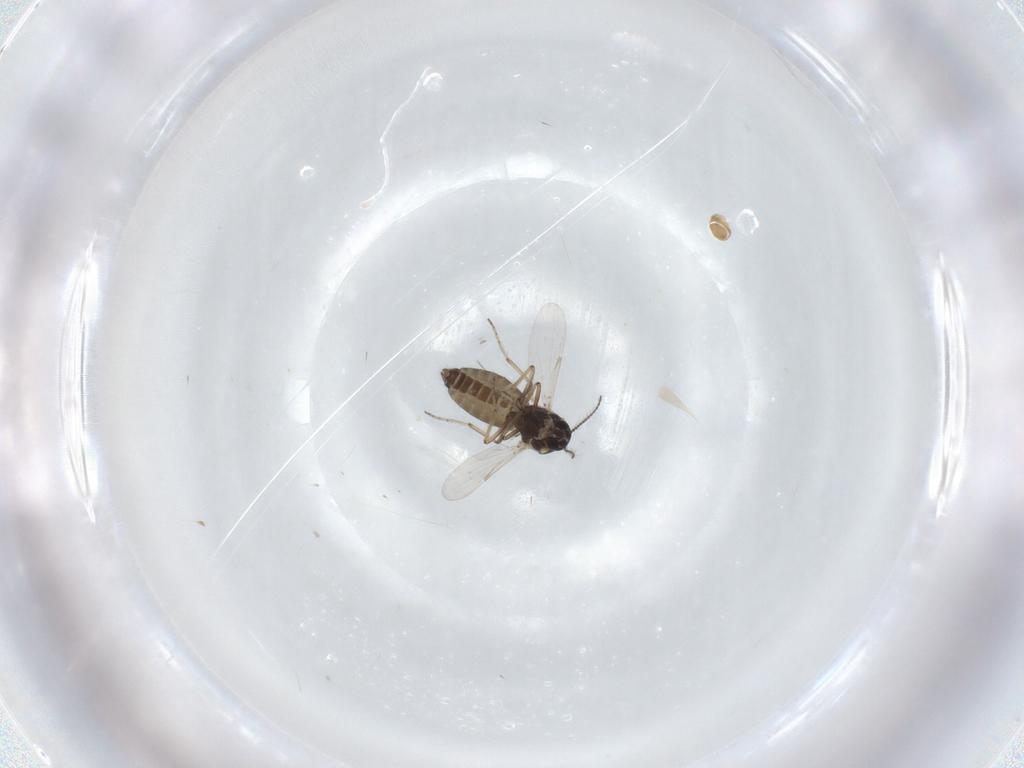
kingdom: Animalia
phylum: Arthropoda
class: Insecta
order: Diptera
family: Ceratopogonidae
